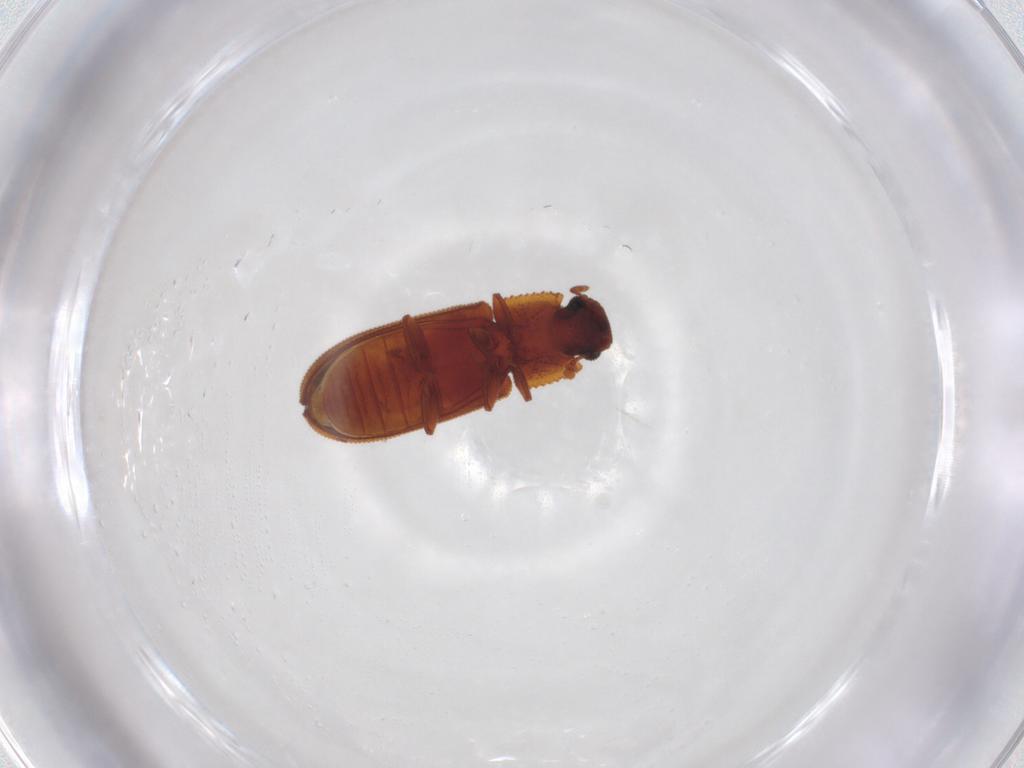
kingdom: Animalia
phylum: Arthropoda
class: Insecta
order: Coleoptera
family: Zopheridae
